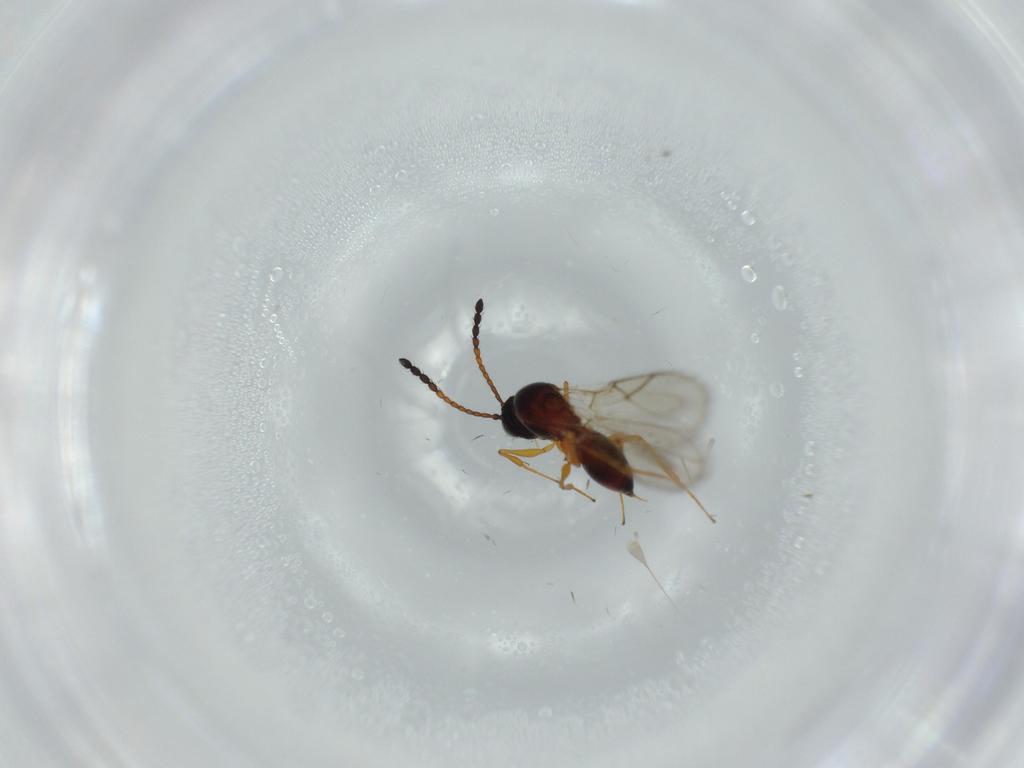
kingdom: Animalia
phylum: Arthropoda
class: Insecta
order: Hymenoptera
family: Figitidae
